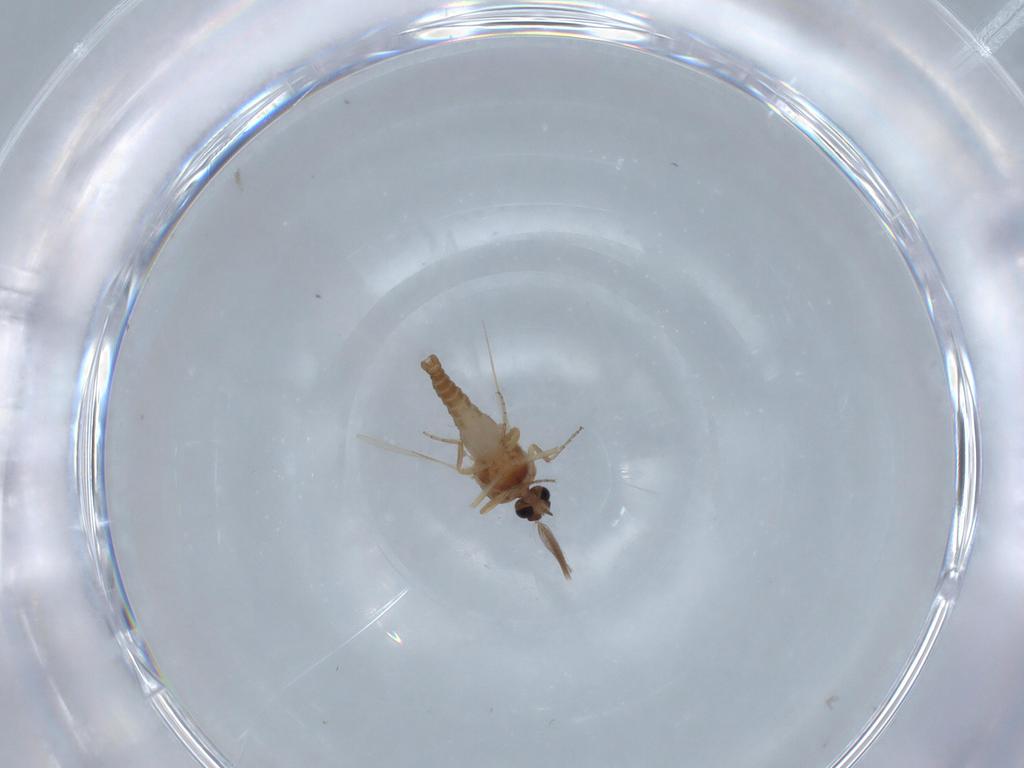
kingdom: Animalia
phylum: Arthropoda
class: Insecta
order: Diptera
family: Ceratopogonidae
